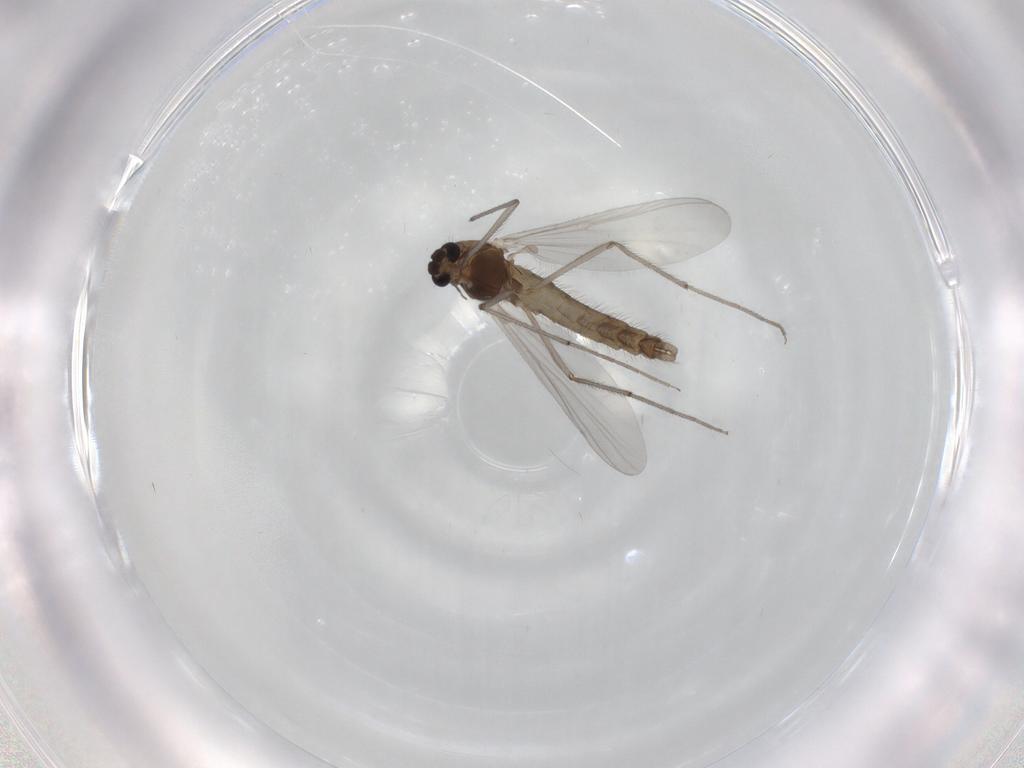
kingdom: Animalia
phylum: Arthropoda
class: Insecta
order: Diptera
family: Chironomidae
